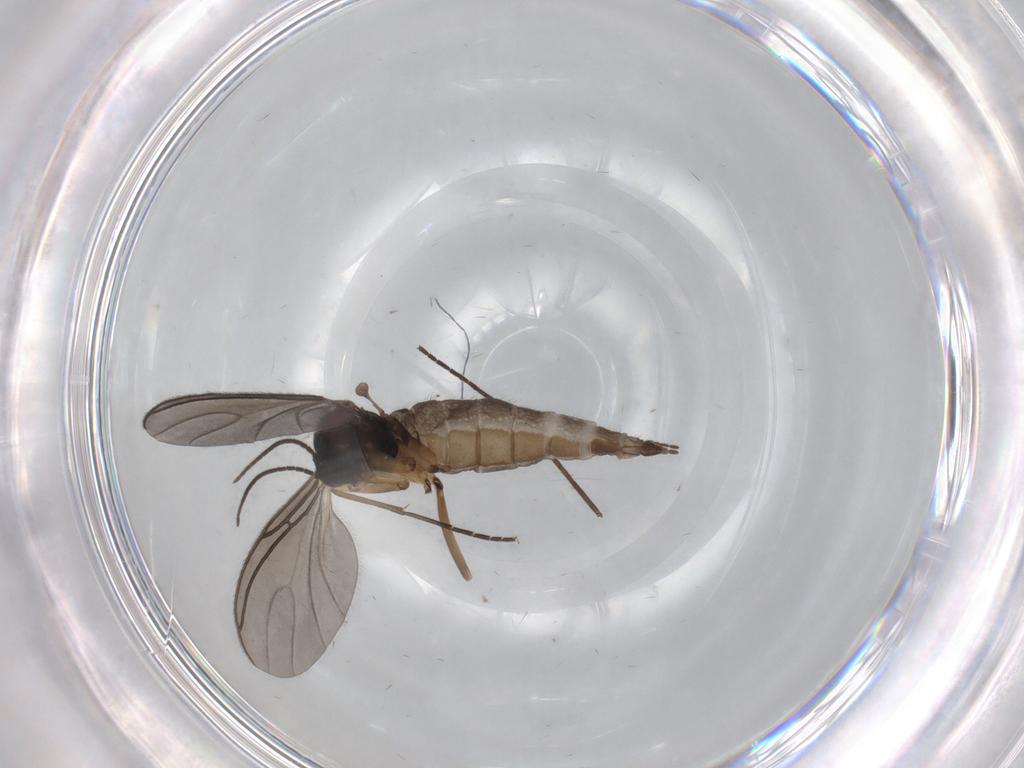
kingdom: Animalia
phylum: Arthropoda
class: Insecta
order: Diptera
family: Sciaridae
